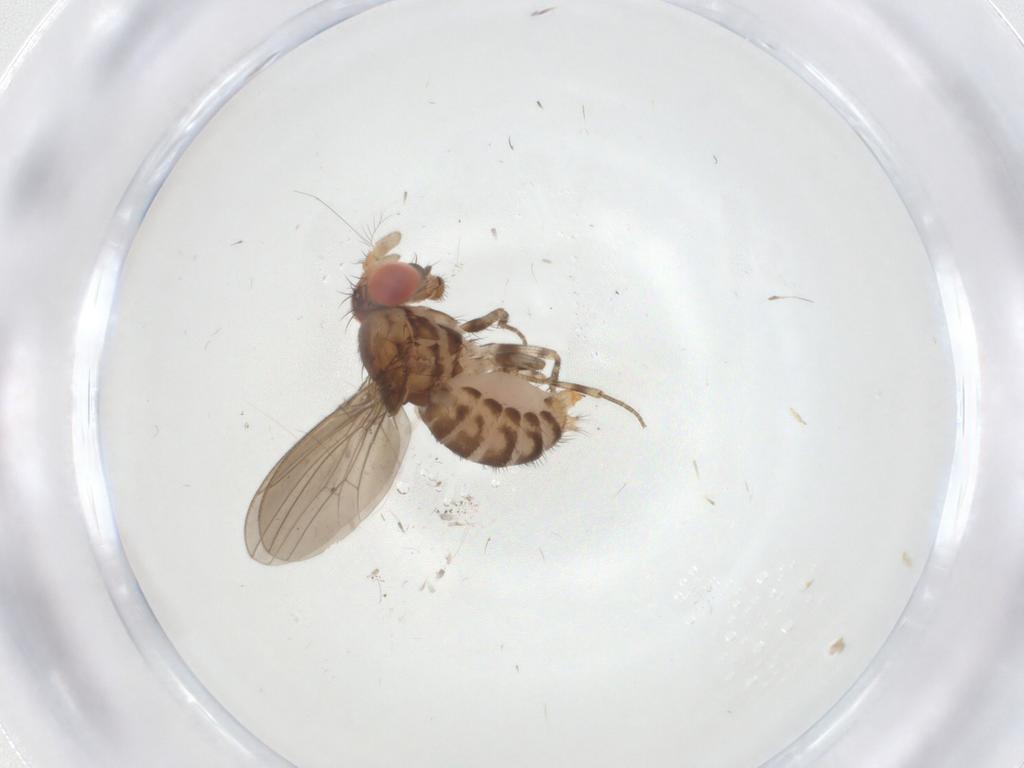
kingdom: Animalia
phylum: Arthropoda
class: Insecta
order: Diptera
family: Drosophilidae
